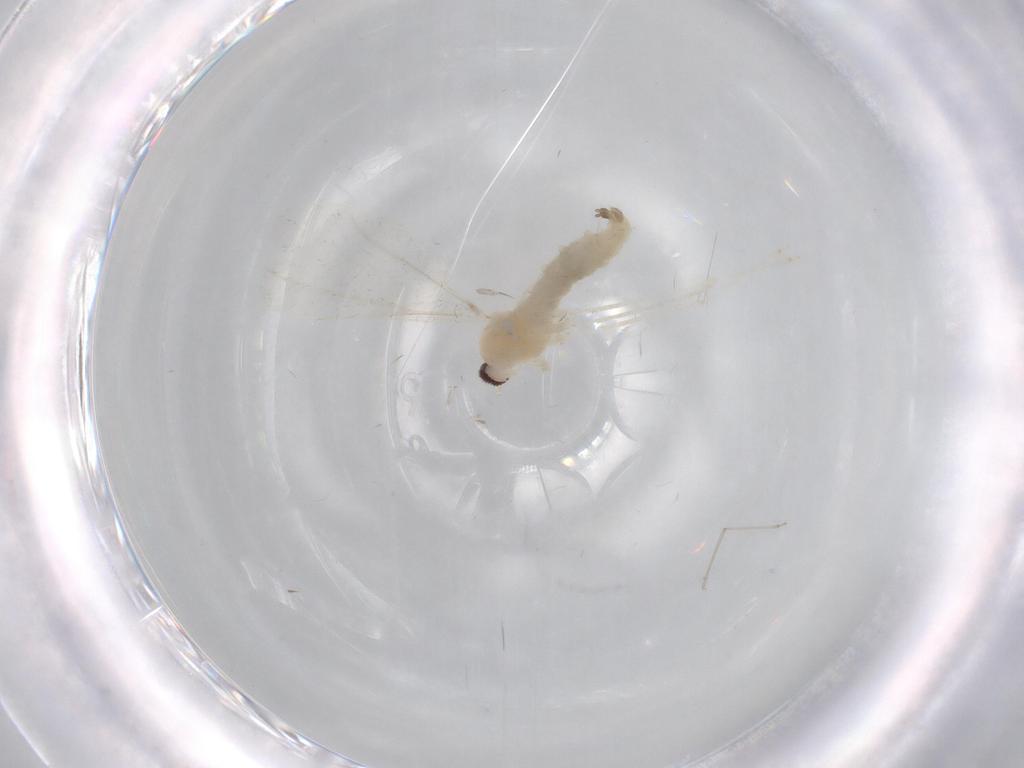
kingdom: Animalia
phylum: Arthropoda
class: Insecta
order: Diptera
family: Cecidomyiidae
